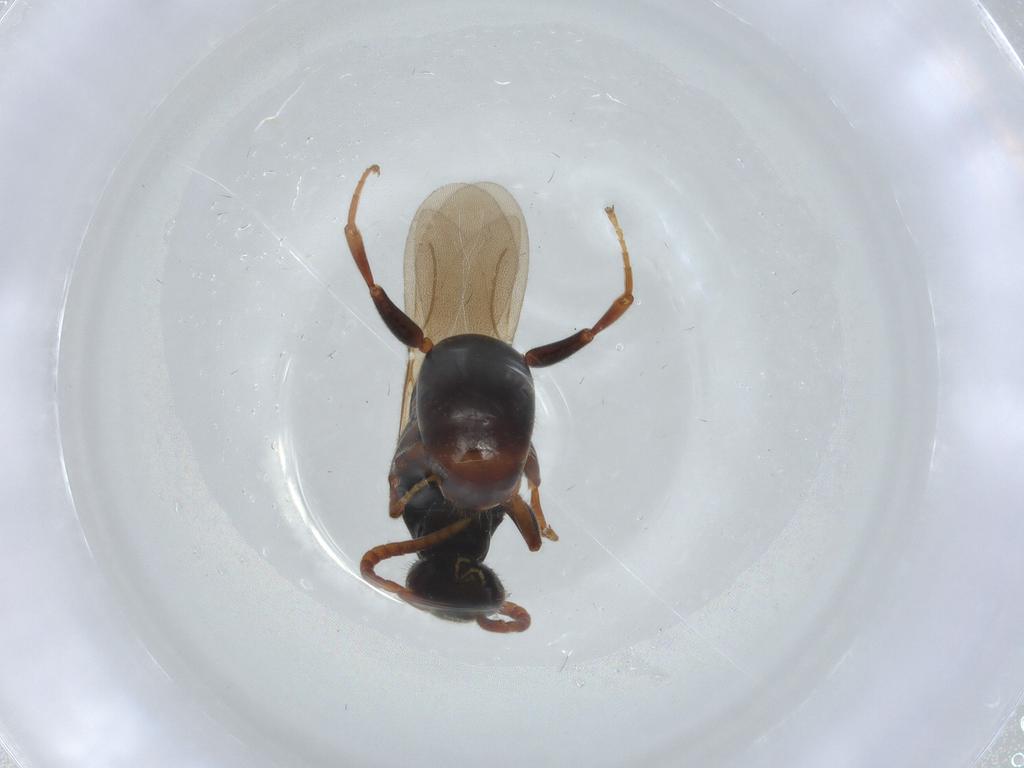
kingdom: Animalia
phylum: Arthropoda
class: Insecta
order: Hymenoptera
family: Bethylidae
